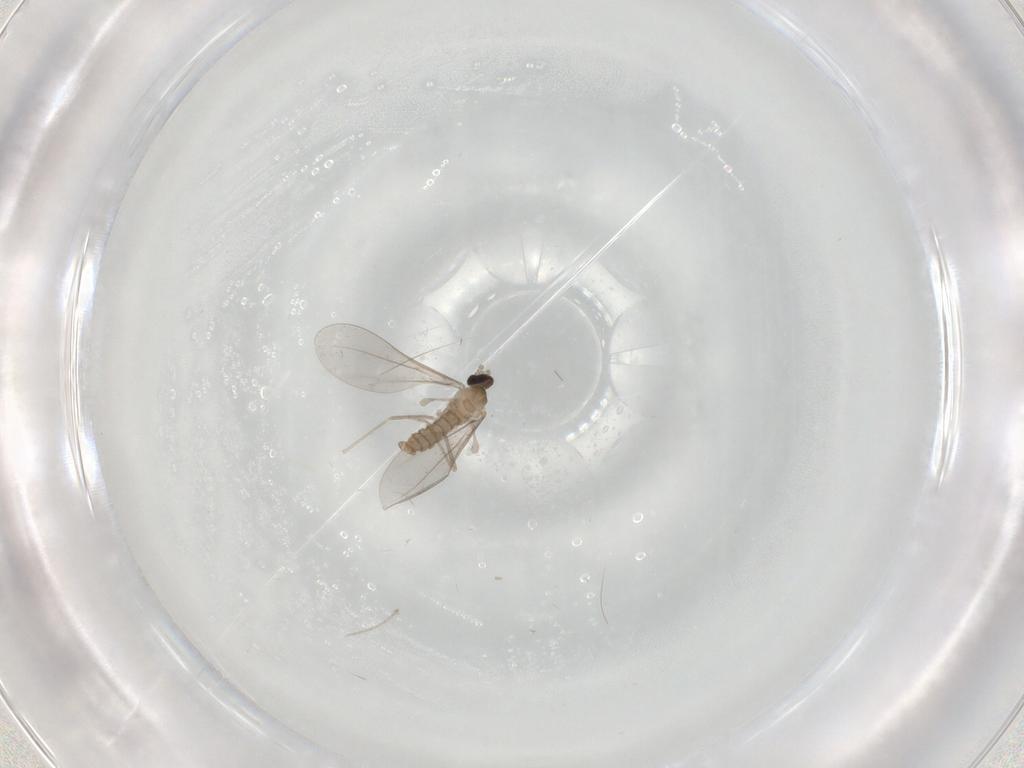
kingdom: Animalia
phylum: Arthropoda
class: Insecta
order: Diptera
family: Cecidomyiidae
